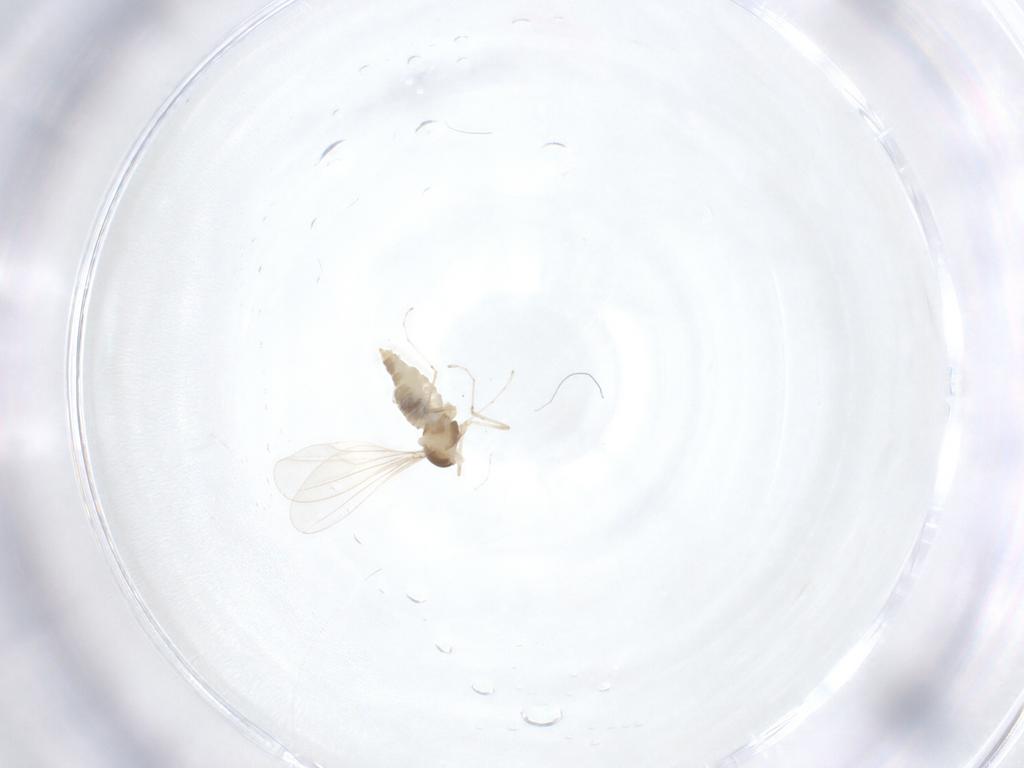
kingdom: Animalia
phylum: Arthropoda
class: Insecta
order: Diptera
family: Cecidomyiidae
